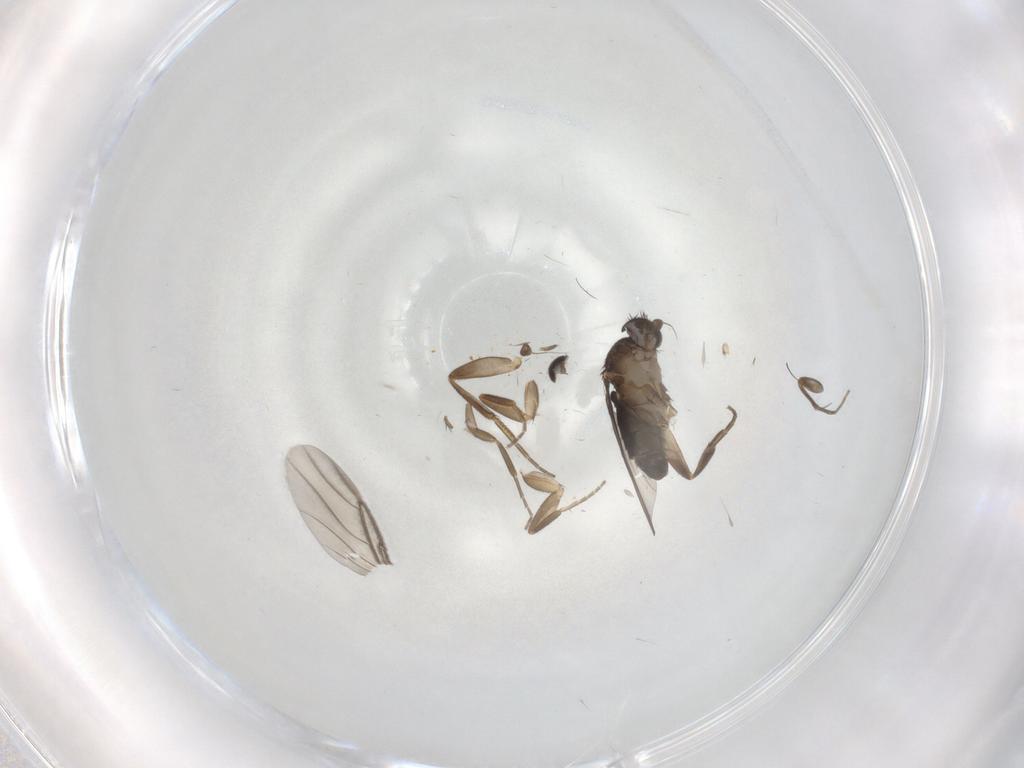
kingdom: Animalia
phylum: Arthropoda
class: Insecta
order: Diptera
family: Phoridae
